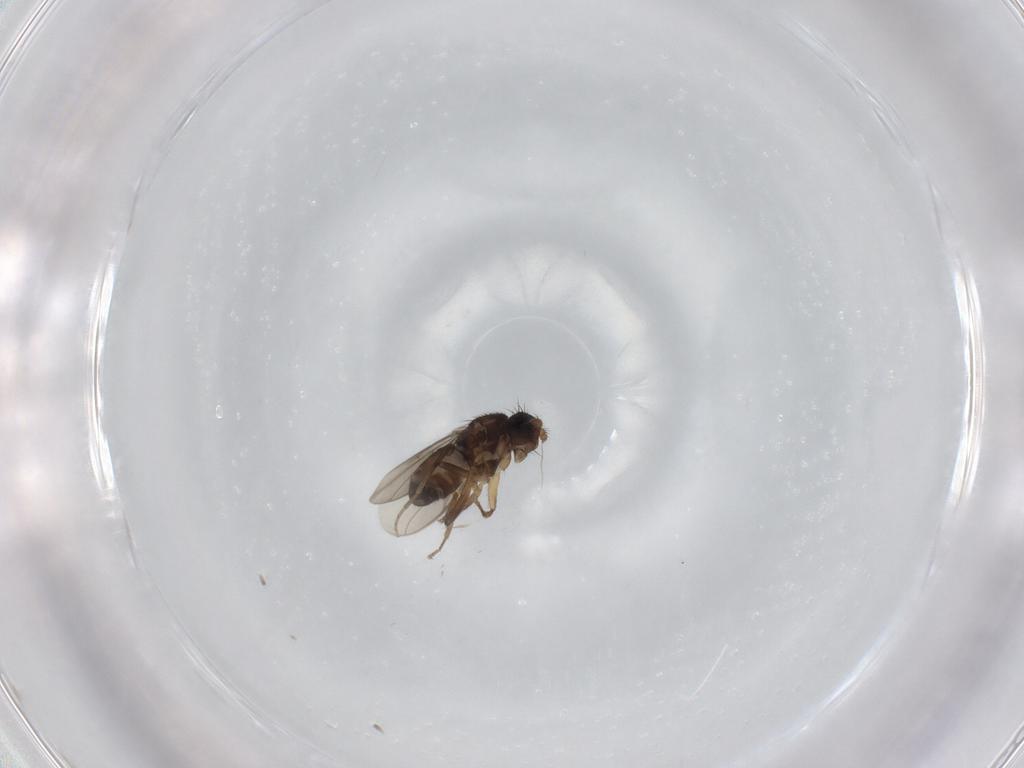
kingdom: Animalia
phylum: Arthropoda
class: Insecta
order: Diptera
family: Sphaeroceridae
